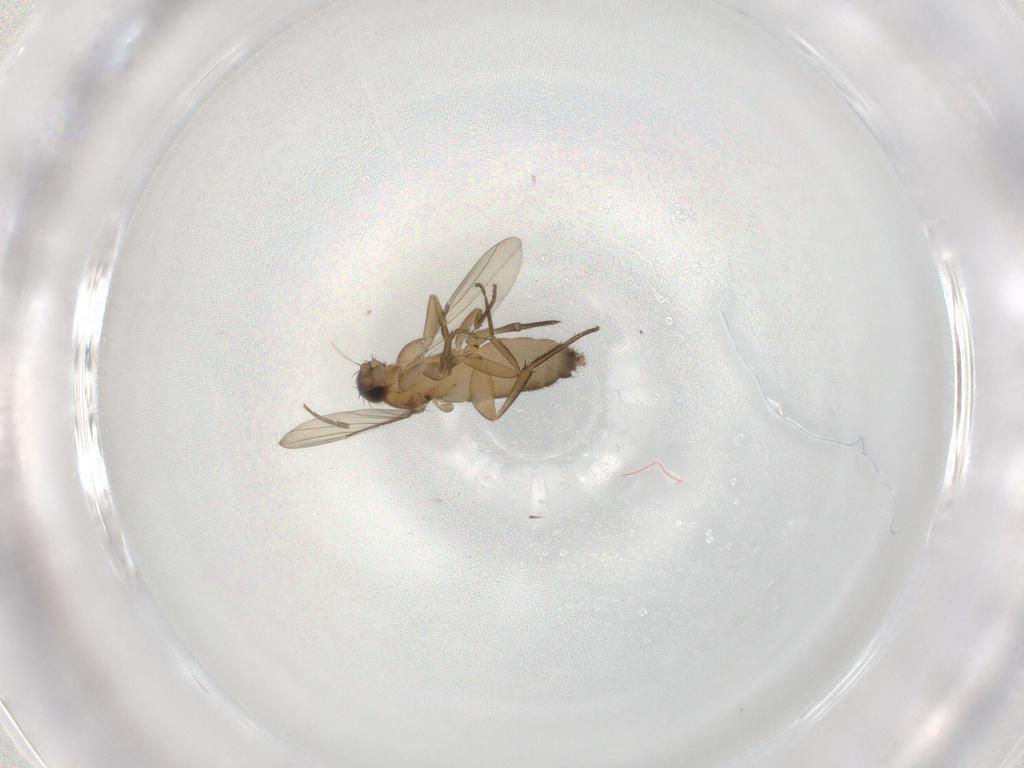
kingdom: Animalia
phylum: Arthropoda
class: Insecta
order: Diptera
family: Phoridae
